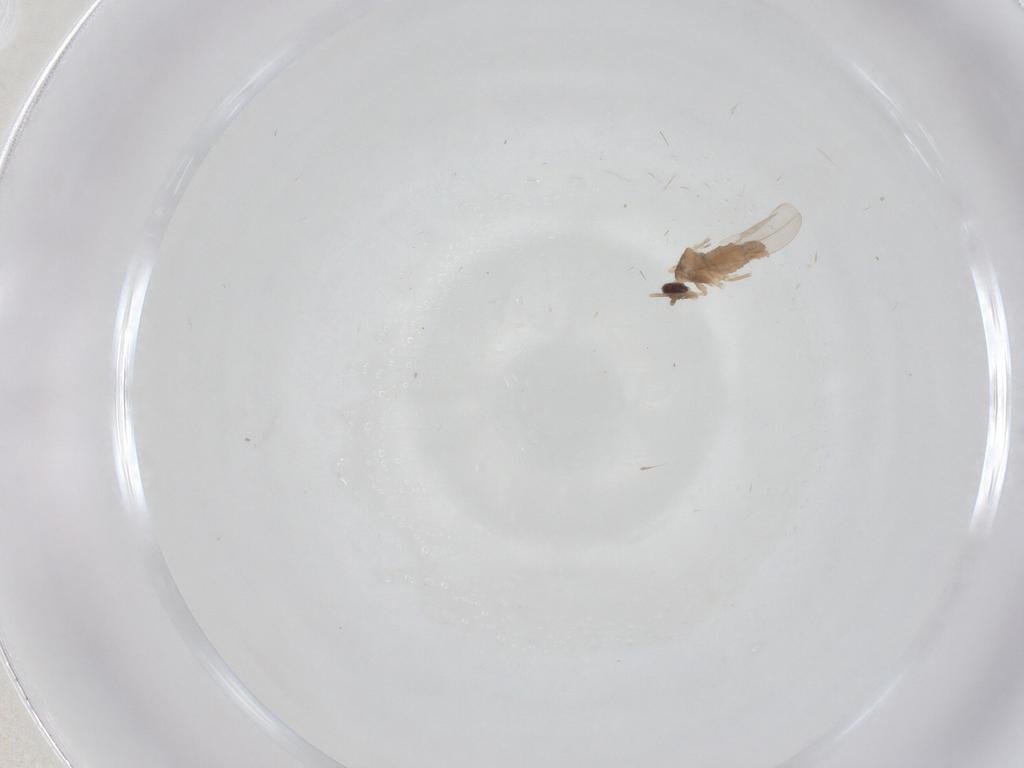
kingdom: Animalia
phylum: Arthropoda
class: Insecta
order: Diptera
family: Cecidomyiidae
